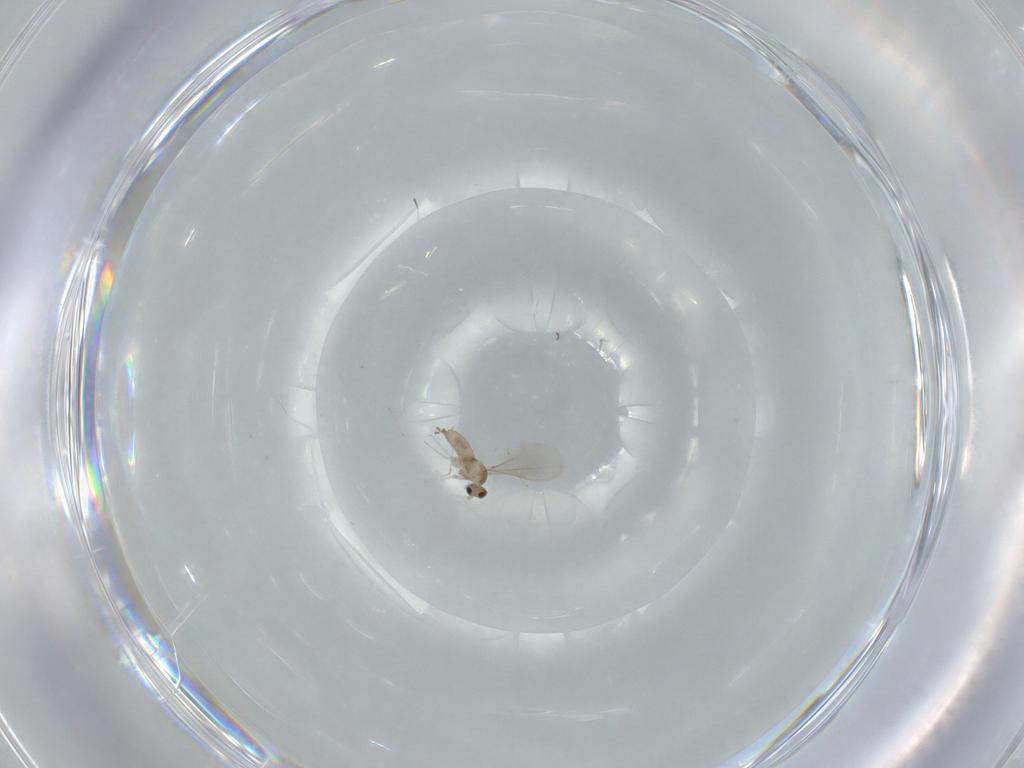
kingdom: Animalia
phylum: Arthropoda
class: Insecta
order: Diptera
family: Cecidomyiidae
